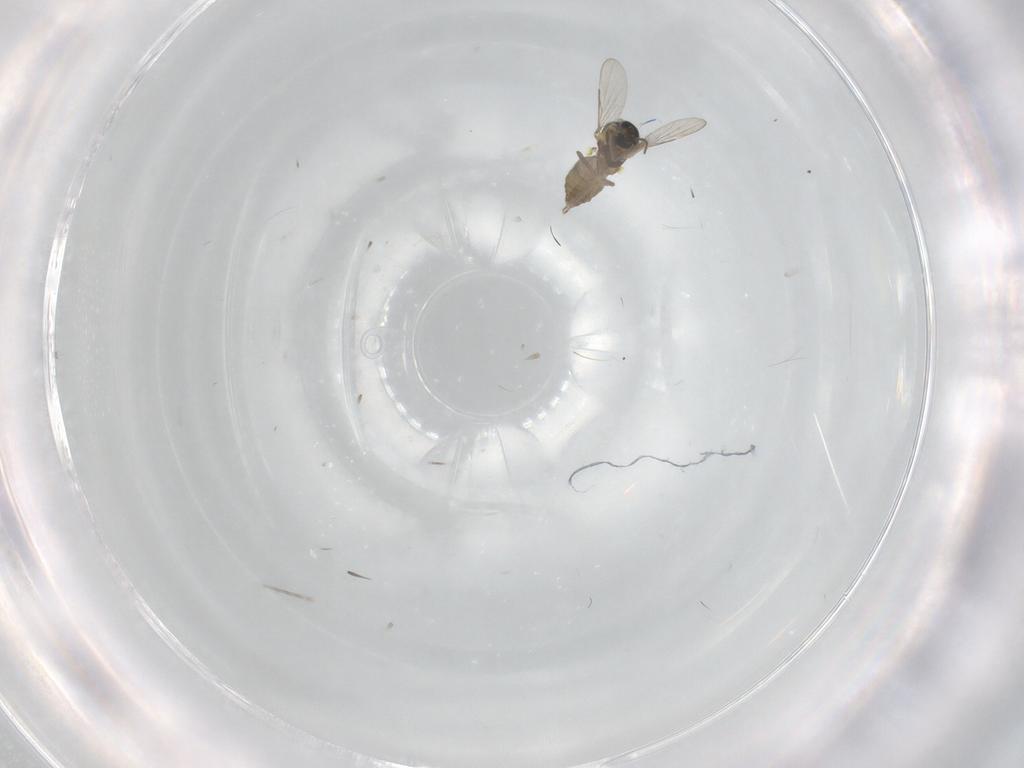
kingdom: Animalia
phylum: Arthropoda
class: Insecta
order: Diptera
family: Ceratopogonidae
